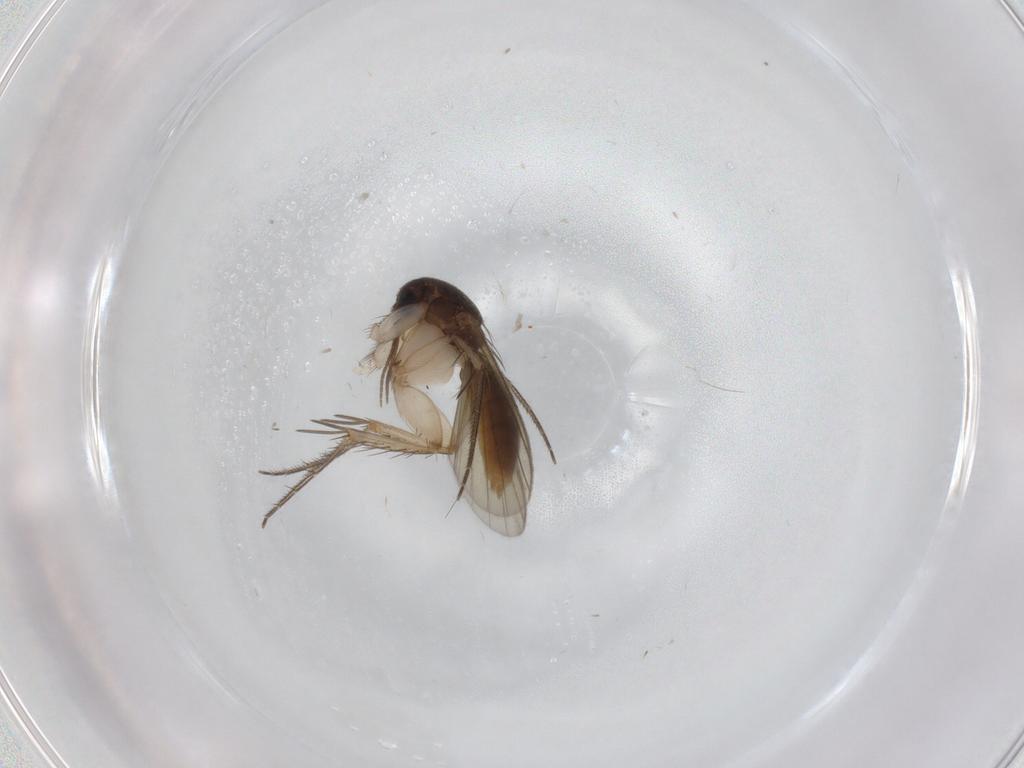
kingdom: Animalia
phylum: Arthropoda
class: Insecta
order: Diptera
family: Mycetophilidae
